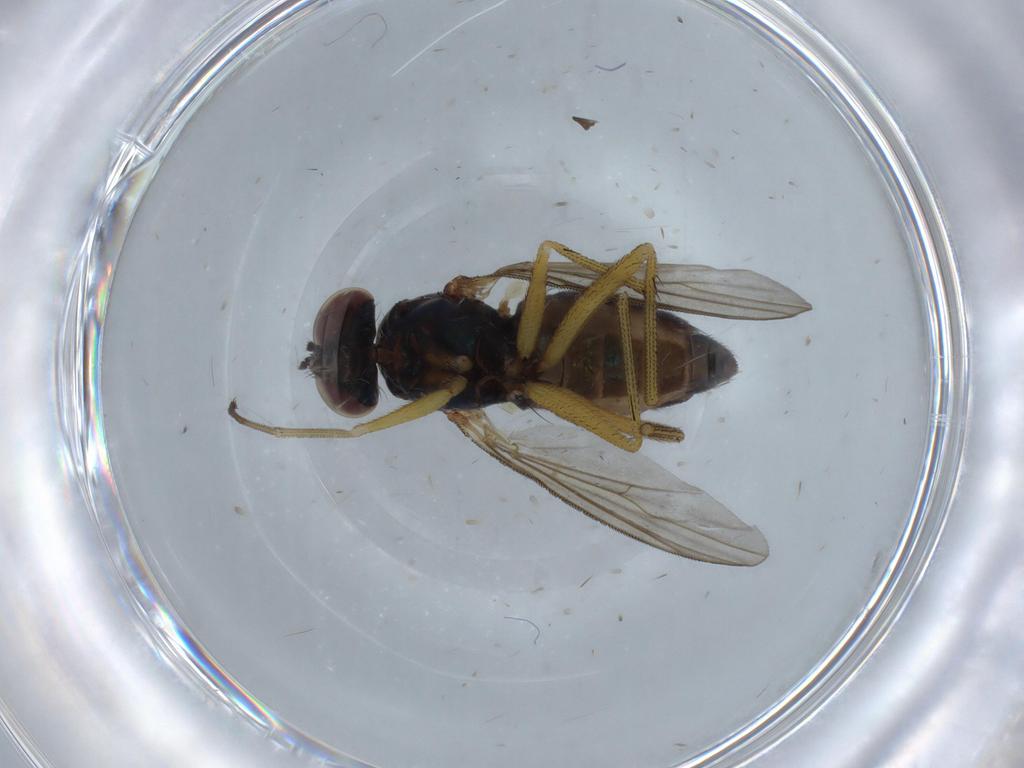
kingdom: Animalia
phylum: Arthropoda
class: Insecta
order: Diptera
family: Dolichopodidae
